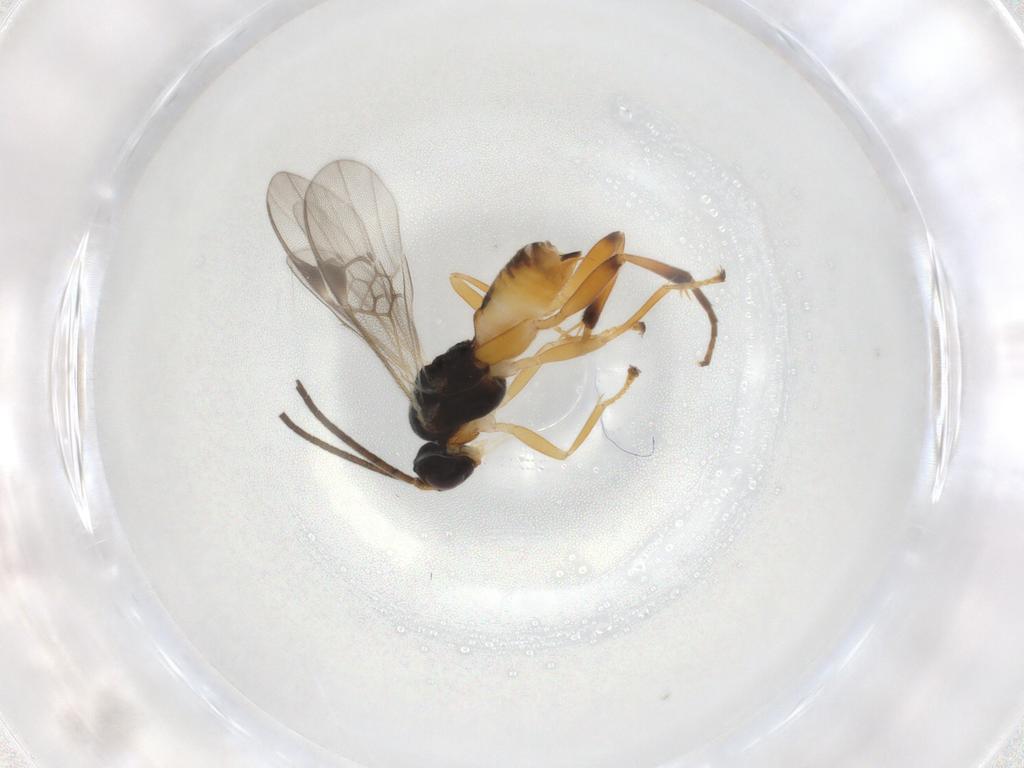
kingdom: Animalia
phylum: Arthropoda
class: Insecta
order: Hymenoptera
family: Braconidae
